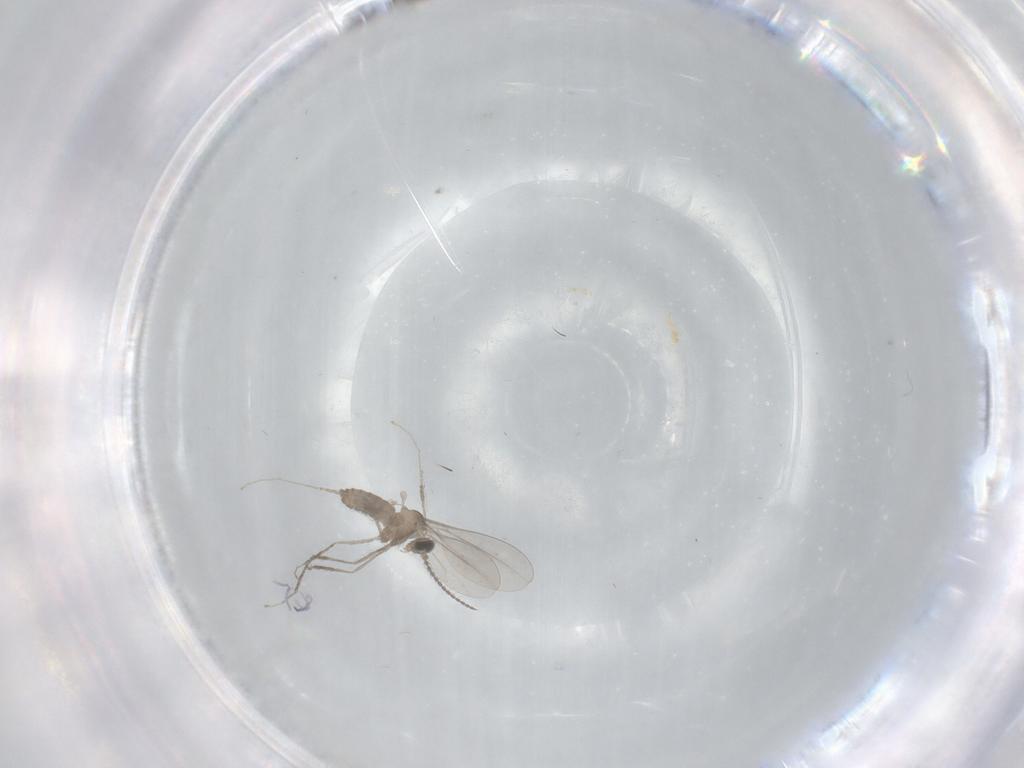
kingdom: Animalia
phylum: Arthropoda
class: Insecta
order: Diptera
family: Cecidomyiidae
